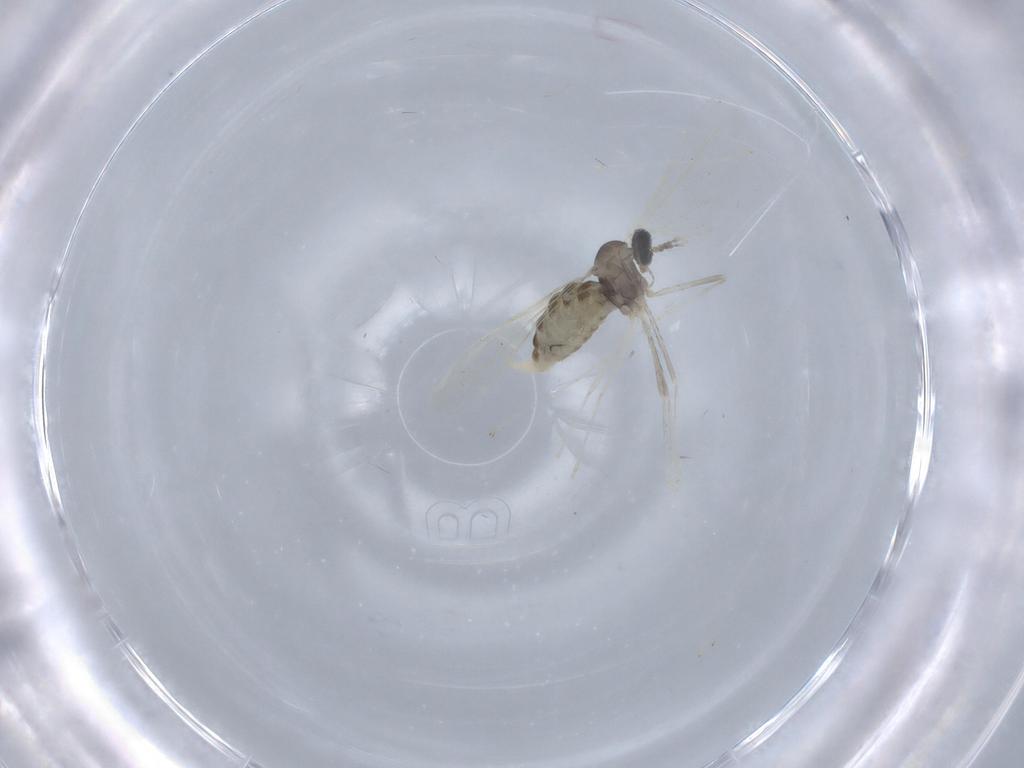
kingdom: Animalia
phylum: Arthropoda
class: Insecta
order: Diptera
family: Cecidomyiidae
